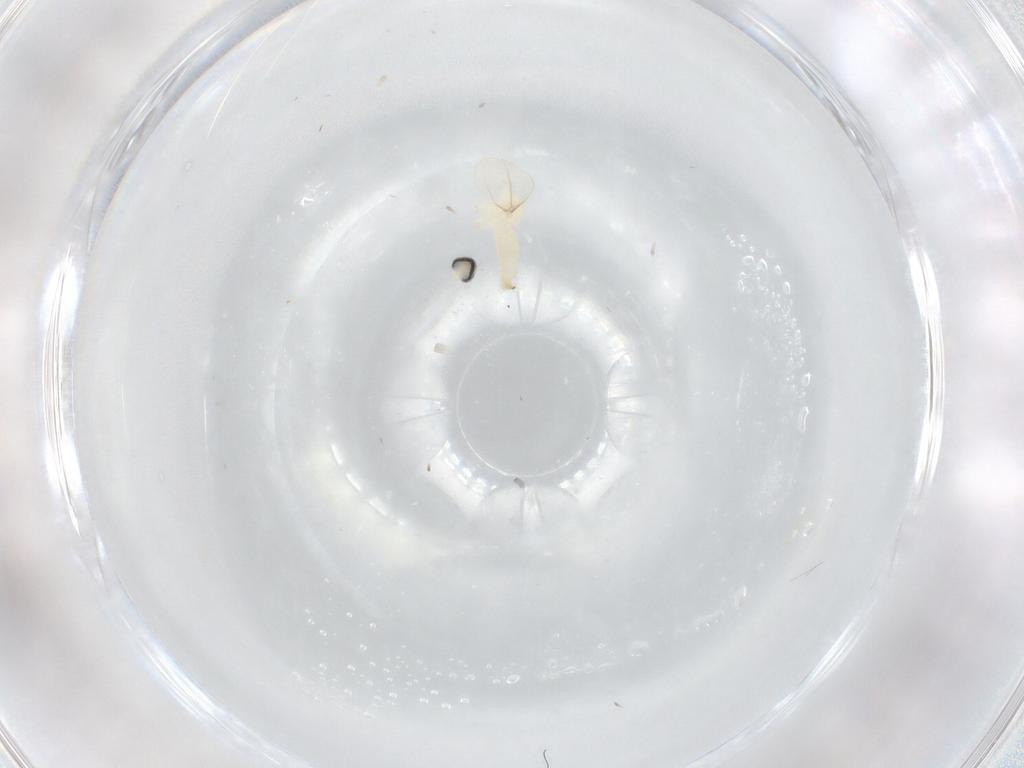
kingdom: Animalia
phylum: Arthropoda
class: Insecta
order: Diptera
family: Cecidomyiidae
